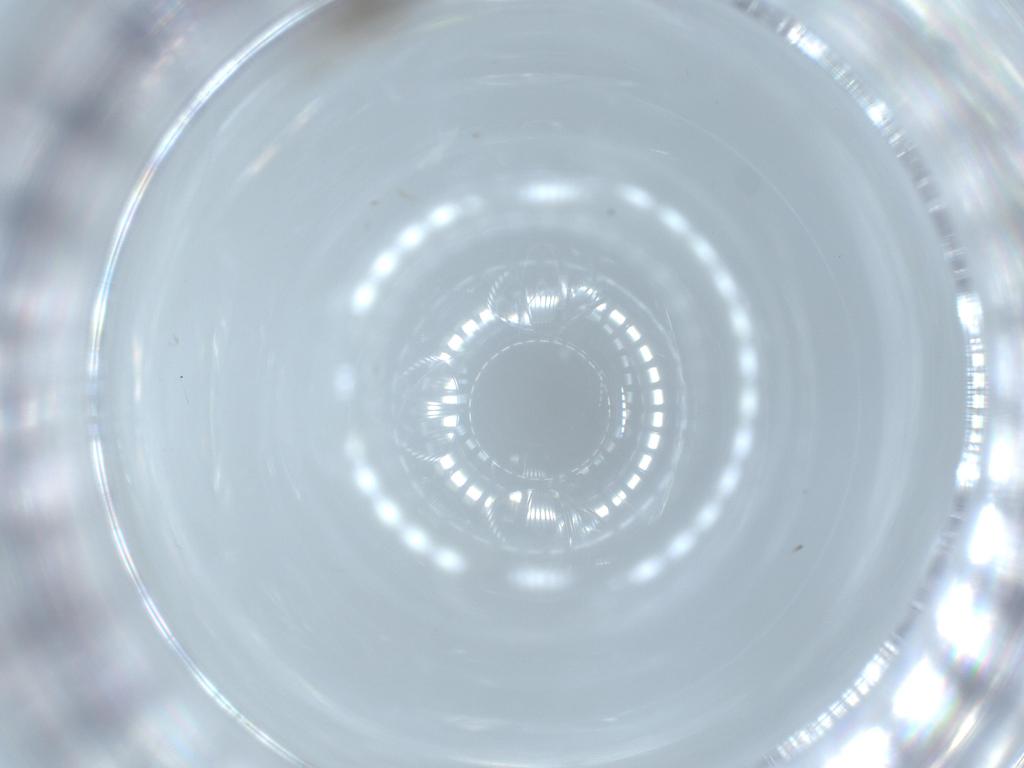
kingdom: Animalia
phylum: Arthropoda
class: Insecta
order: Diptera
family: Cecidomyiidae
